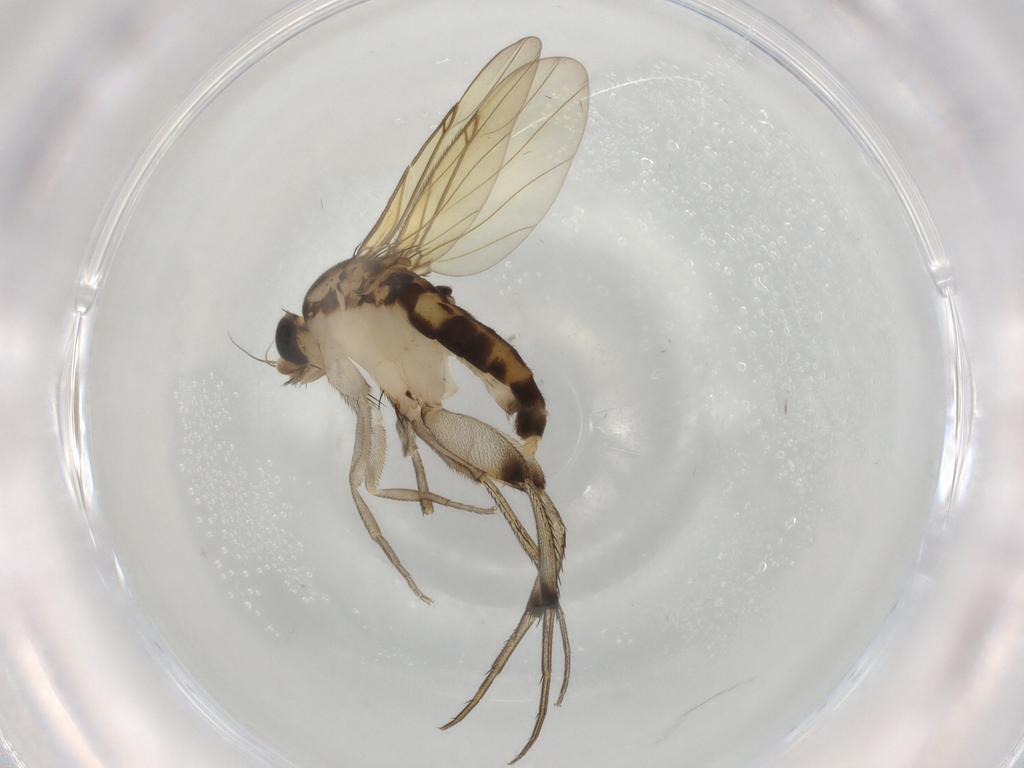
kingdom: Animalia
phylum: Arthropoda
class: Insecta
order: Diptera
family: Phoridae
